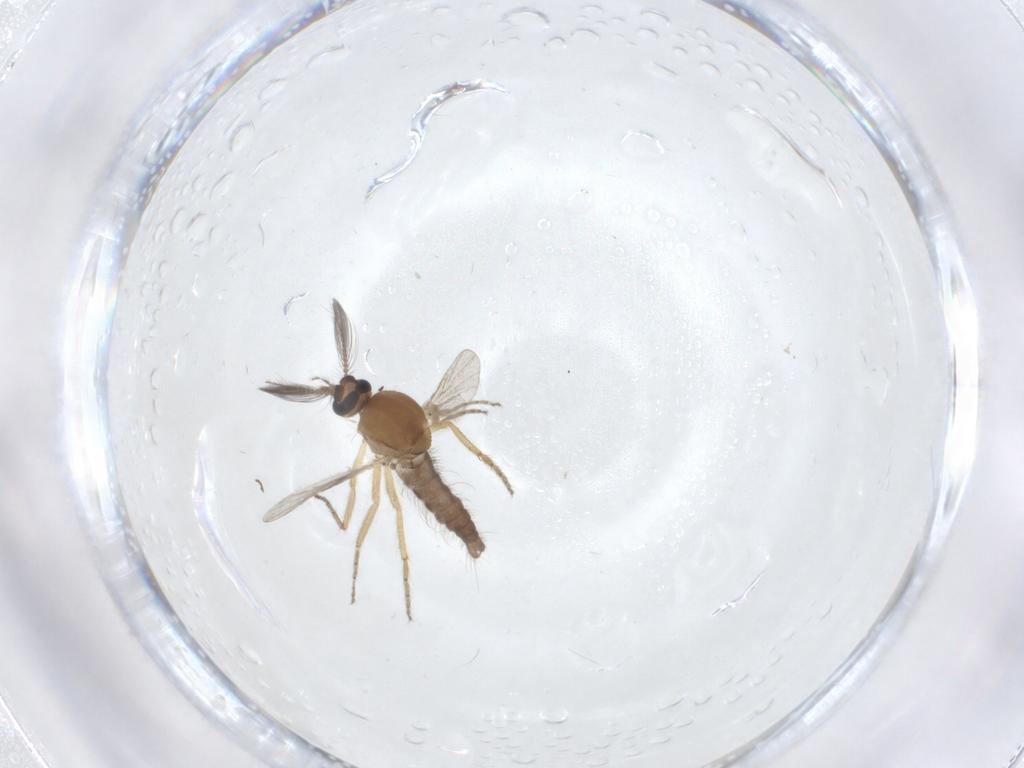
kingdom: Animalia
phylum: Arthropoda
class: Insecta
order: Diptera
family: Ceratopogonidae
